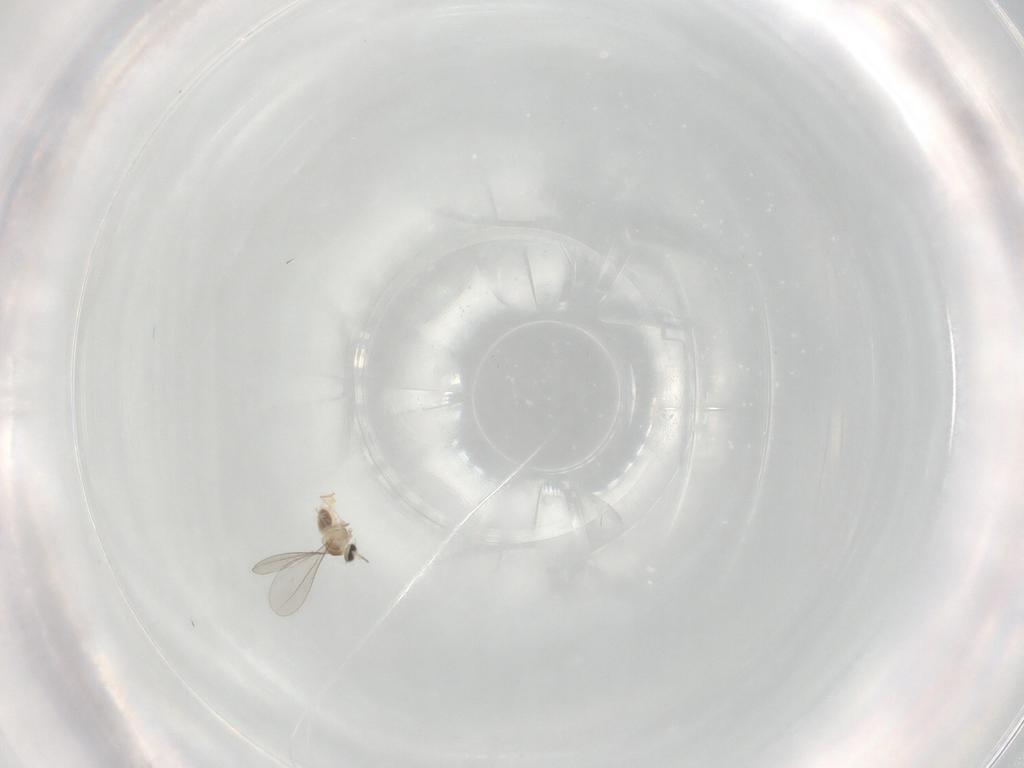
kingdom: Animalia
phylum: Arthropoda
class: Insecta
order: Diptera
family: Cecidomyiidae
